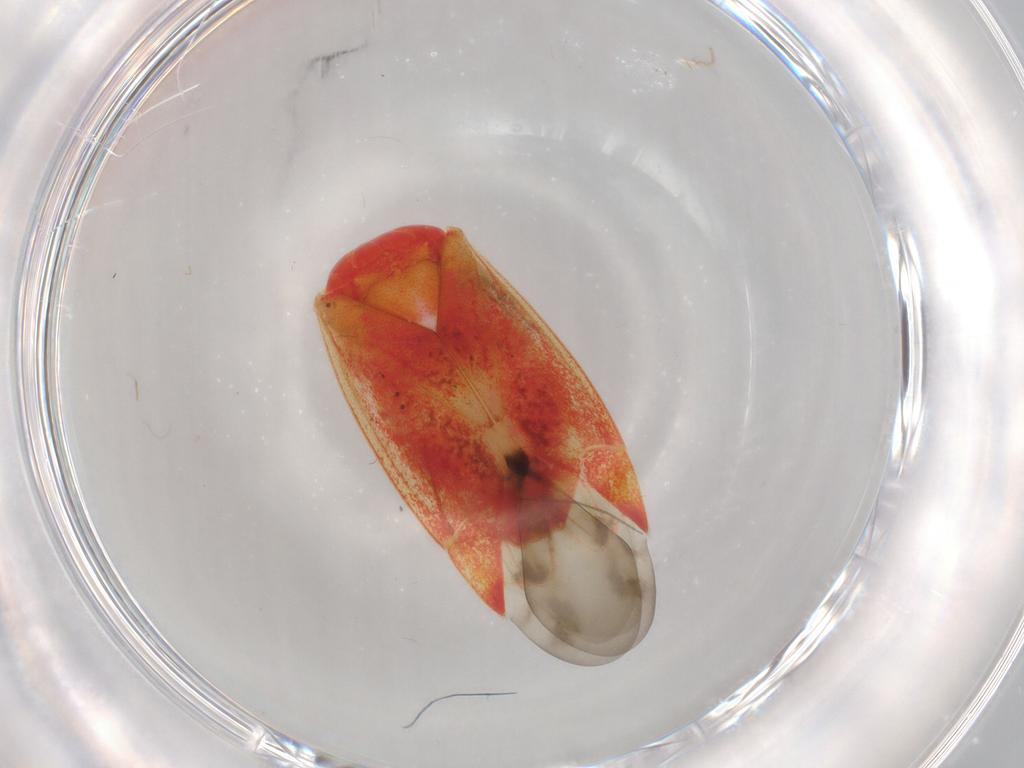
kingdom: Animalia
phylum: Arthropoda
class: Insecta
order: Hemiptera
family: Miridae
